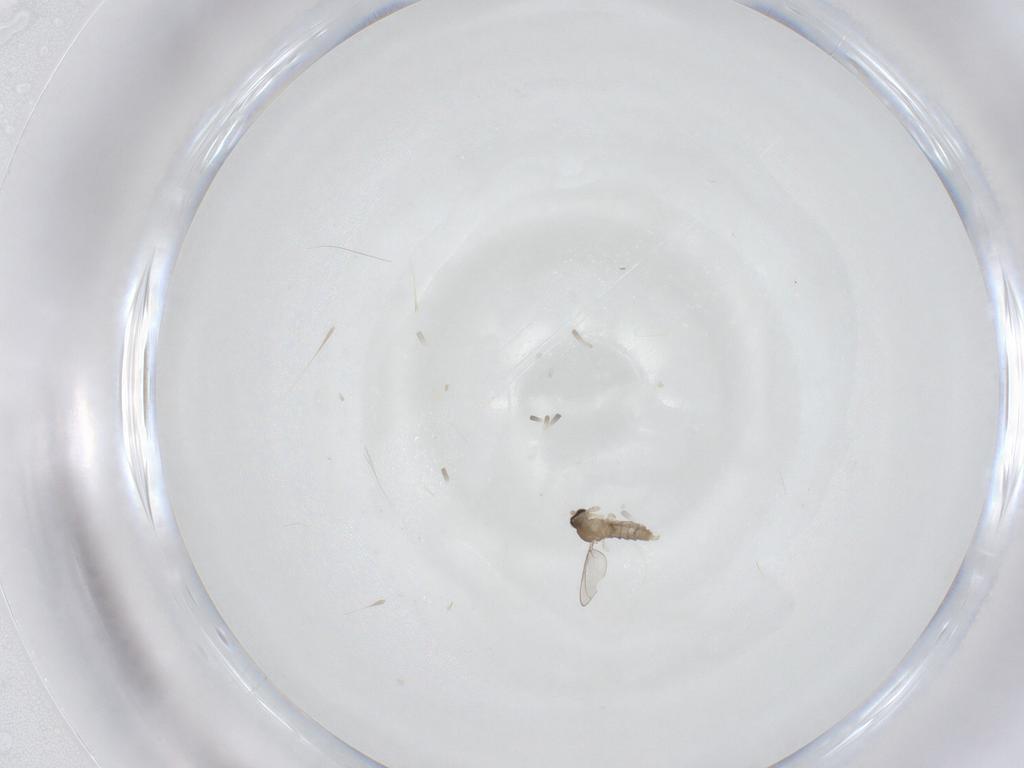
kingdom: Animalia
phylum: Arthropoda
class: Insecta
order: Diptera
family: Cecidomyiidae
